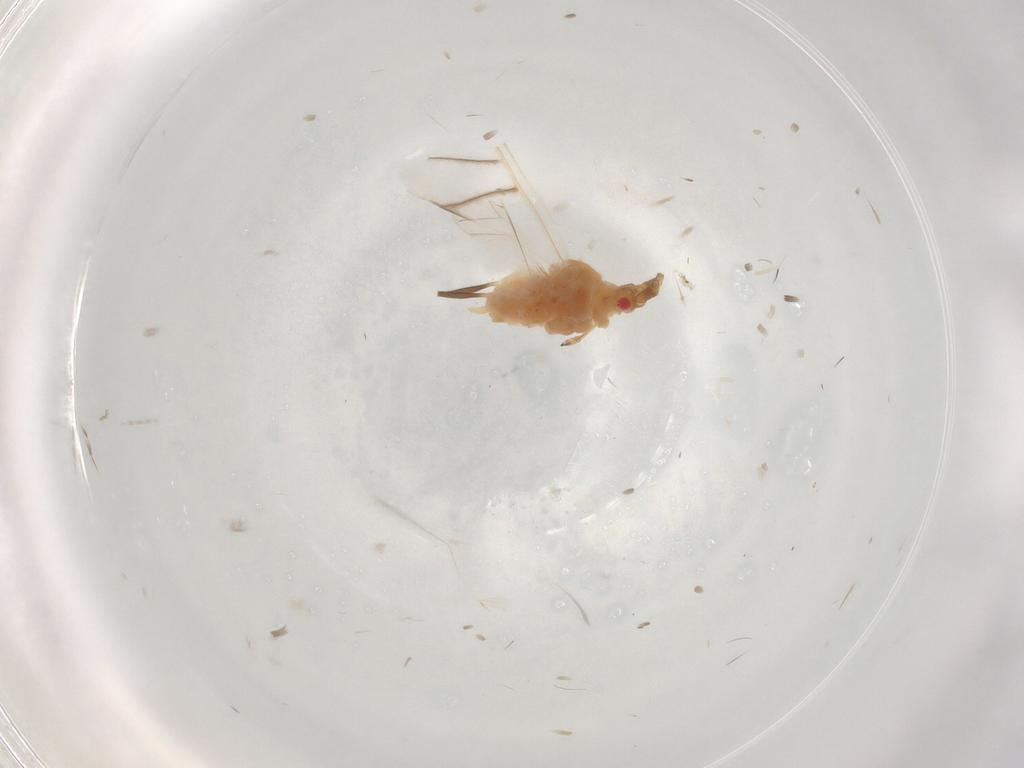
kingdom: Animalia
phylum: Arthropoda
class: Insecta
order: Hemiptera
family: Aphididae
